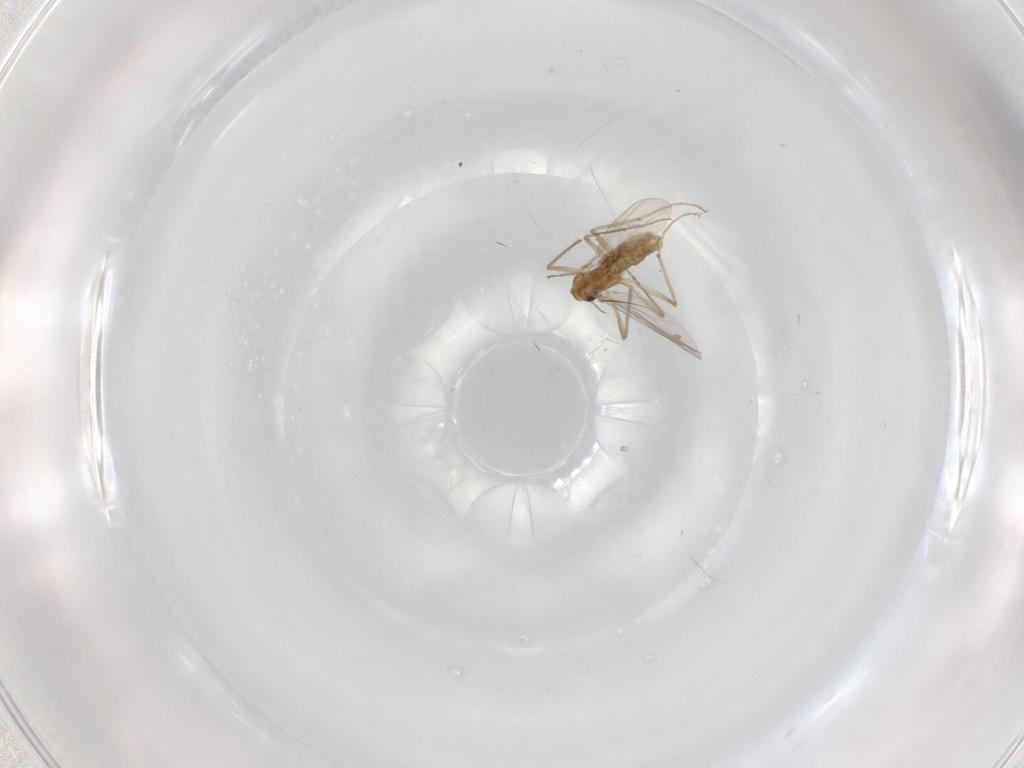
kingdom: Animalia
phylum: Arthropoda
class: Insecta
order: Diptera
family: Chironomidae
